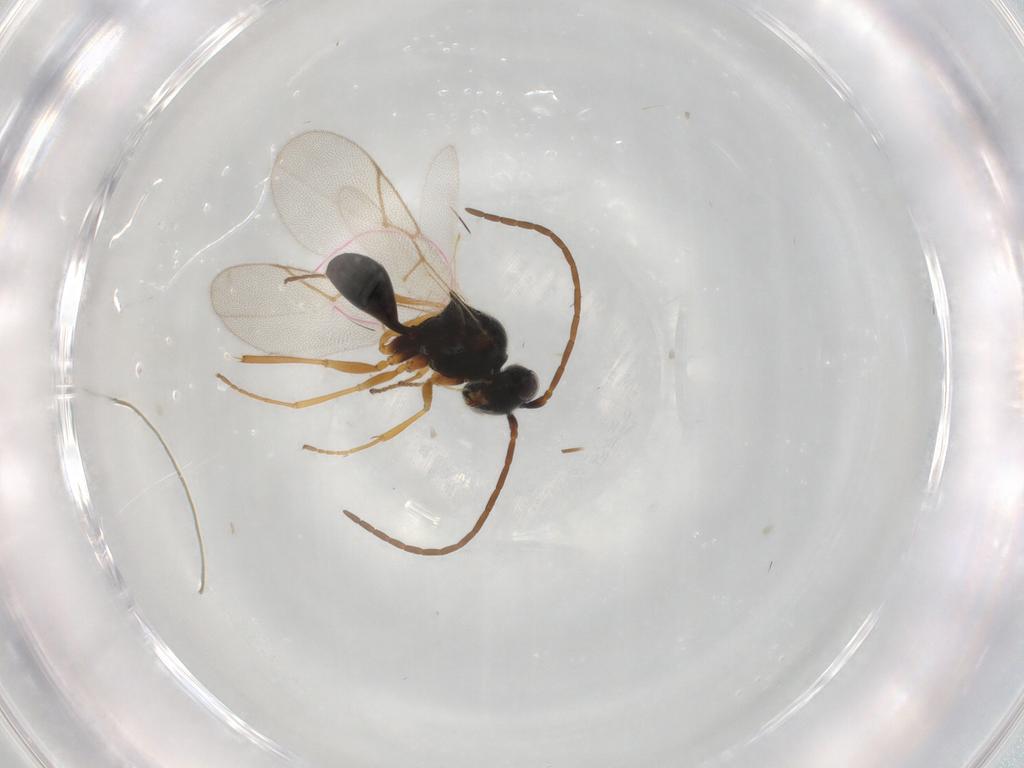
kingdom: Animalia
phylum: Arthropoda
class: Insecta
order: Hymenoptera
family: Figitidae
